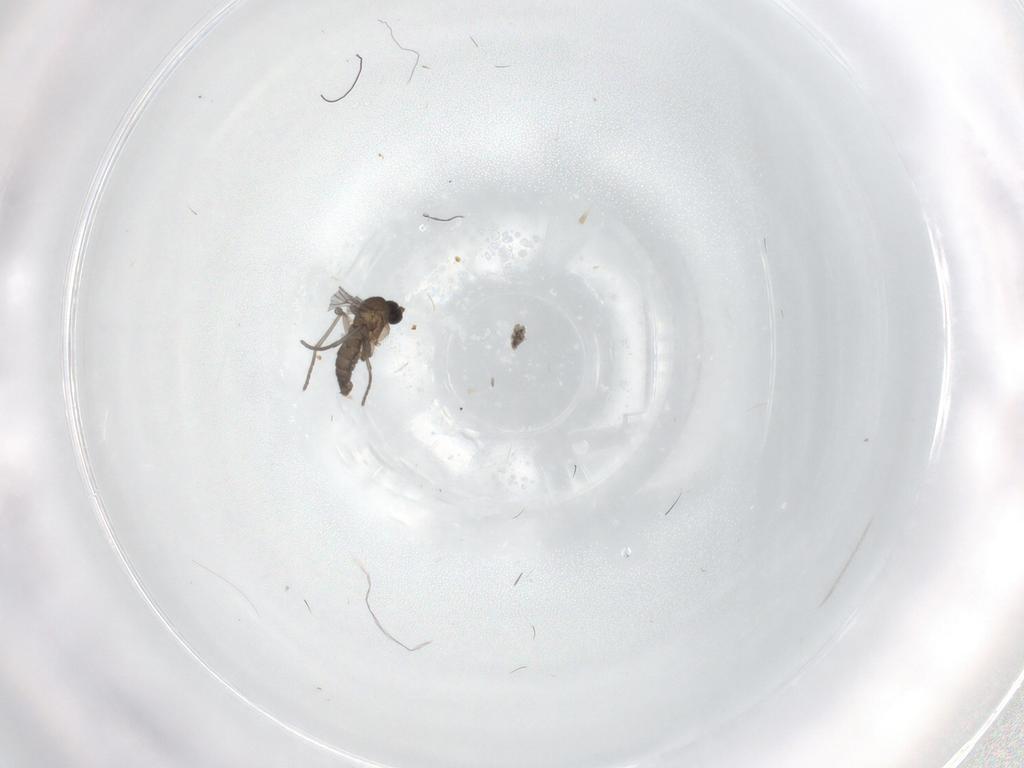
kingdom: Animalia
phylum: Arthropoda
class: Insecta
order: Diptera
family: Sciaridae
